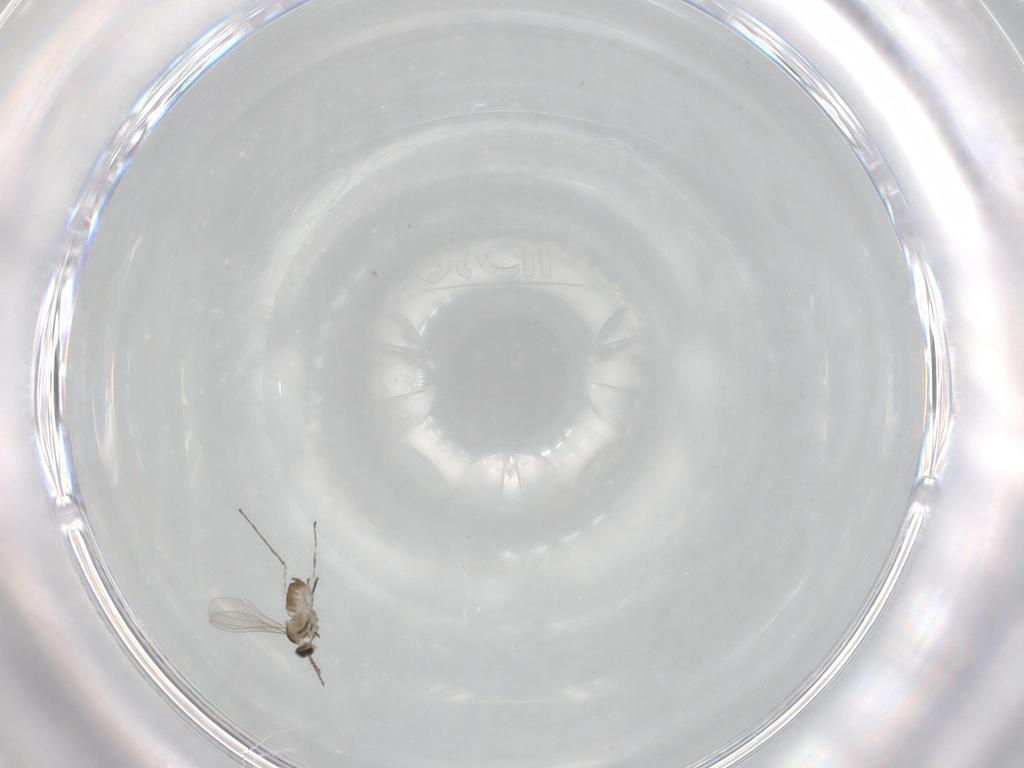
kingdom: Animalia
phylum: Arthropoda
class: Insecta
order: Diptera
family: Cecidomyiidae
